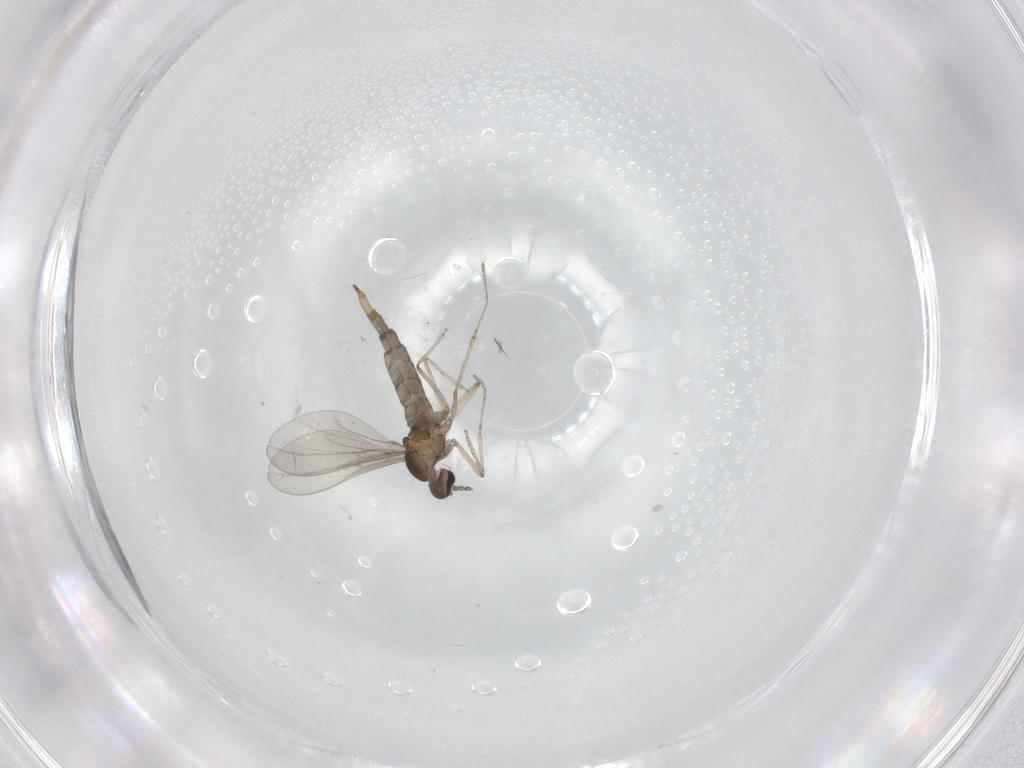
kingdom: Animalia
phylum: Arthropoda
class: Insecta
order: Diptera
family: Cecidomyiidae
